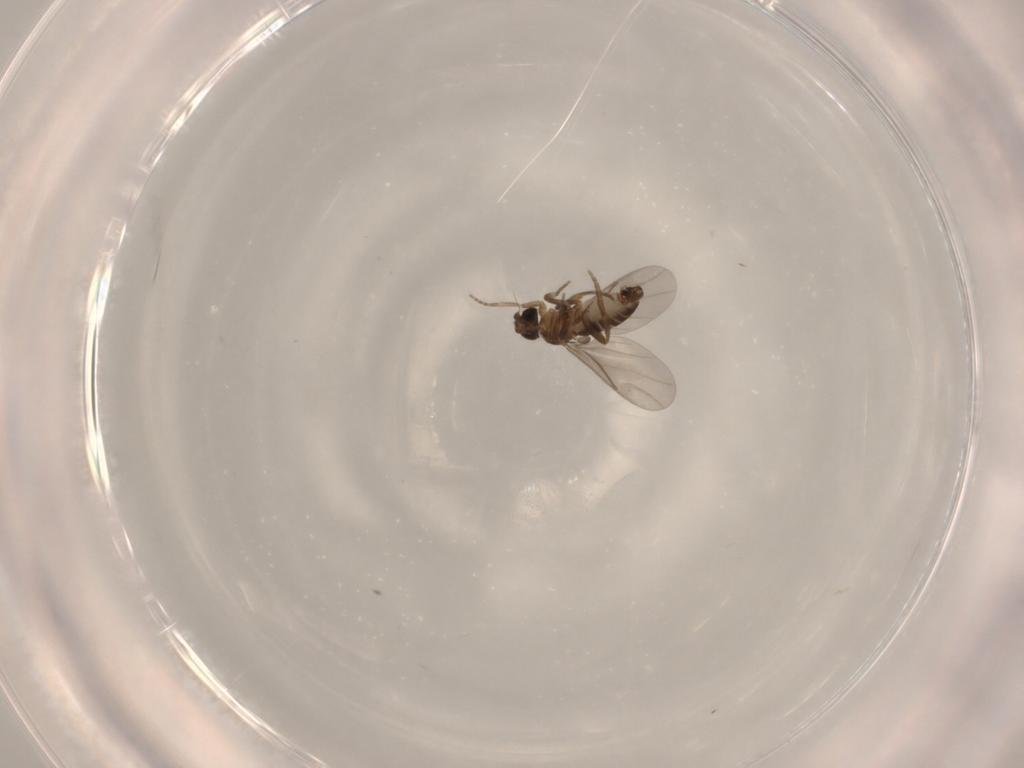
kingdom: Animalia
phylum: Arthropoda
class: Insecta
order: Diptera
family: Limoniidae
